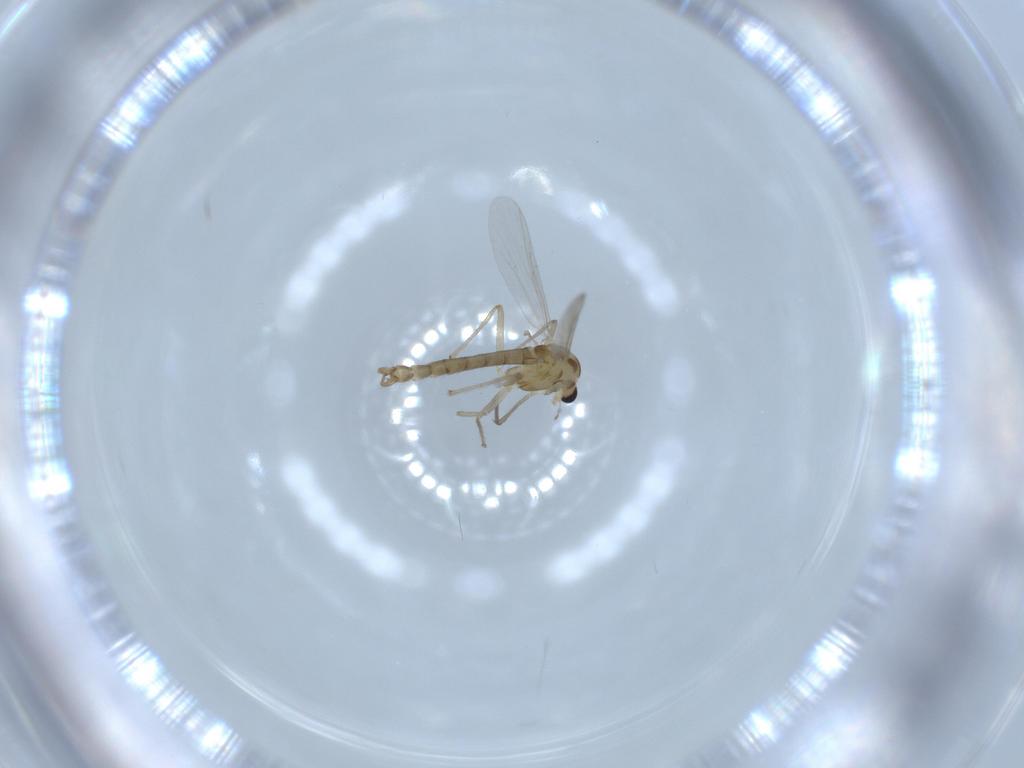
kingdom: Animalia
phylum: Arthropoda
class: Insecta
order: Diptera
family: Chironomidae
